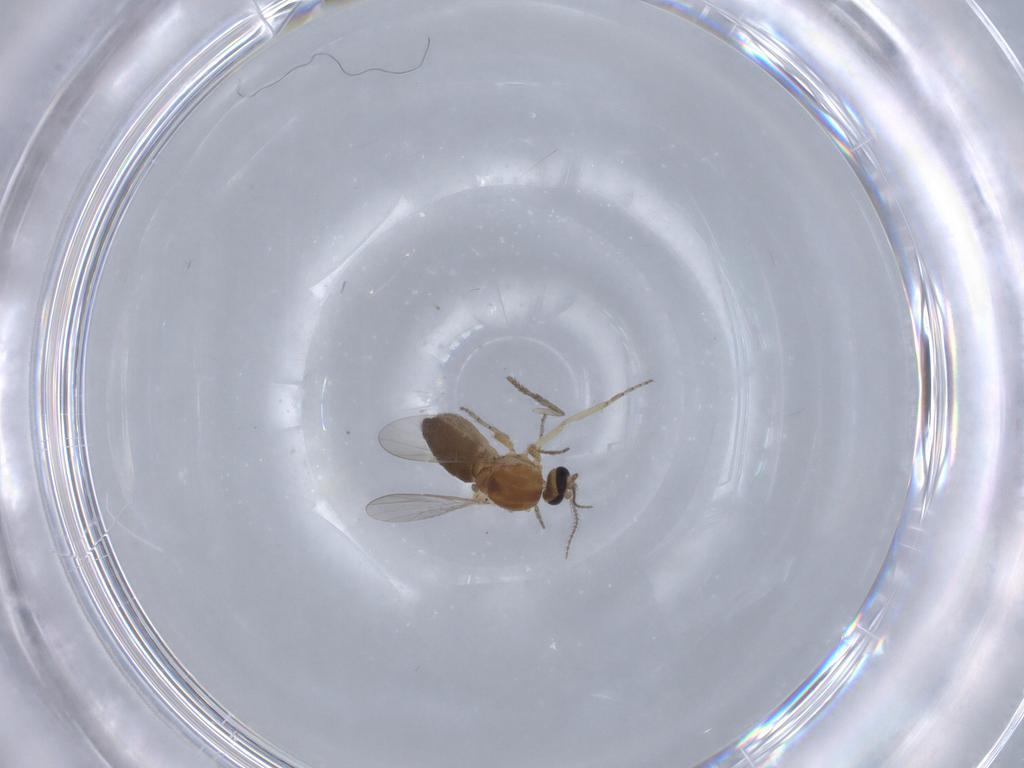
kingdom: Animalia
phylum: Arthropoda
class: Insecta
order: Diptera
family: Ceratopogonidae
